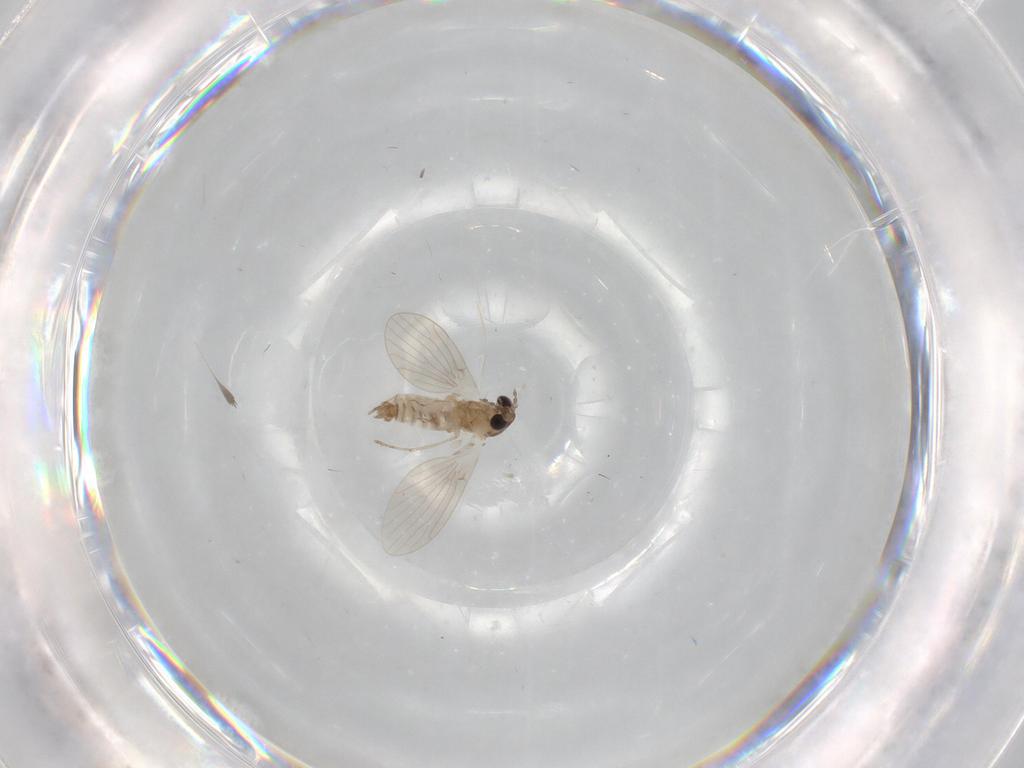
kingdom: Animalia
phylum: Arthropoda
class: Insecta
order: Diptera
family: Psychodidae
